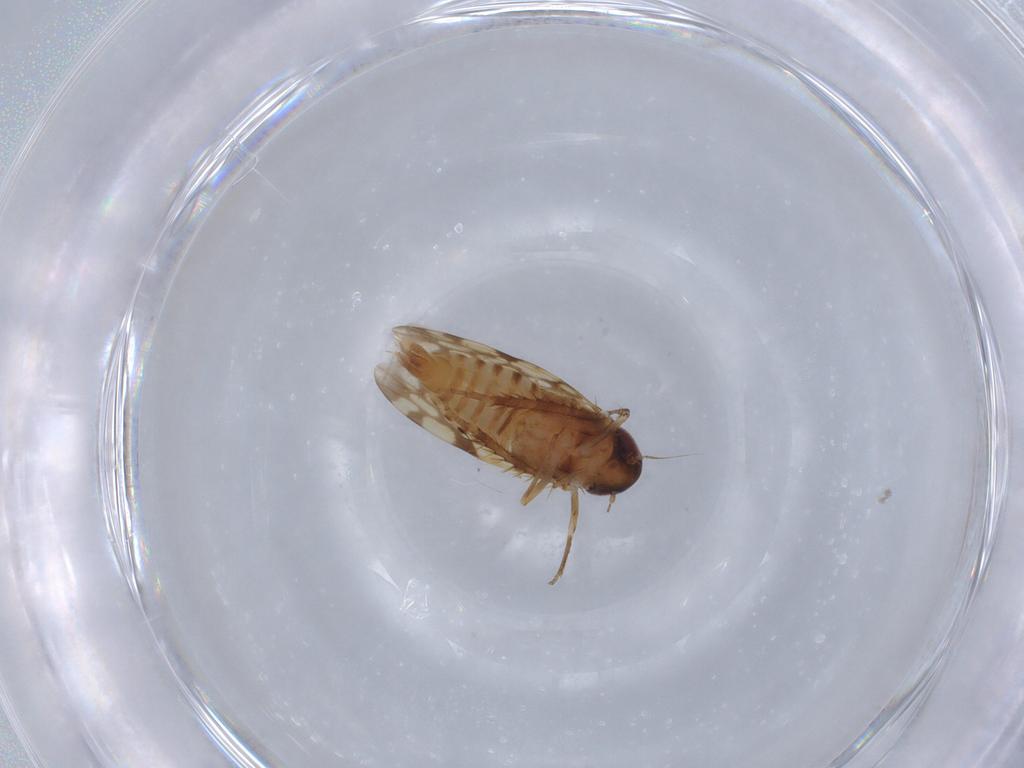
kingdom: Animalia
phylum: Arthropoda
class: Insecta
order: Hemiptera
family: Cicadellidae
